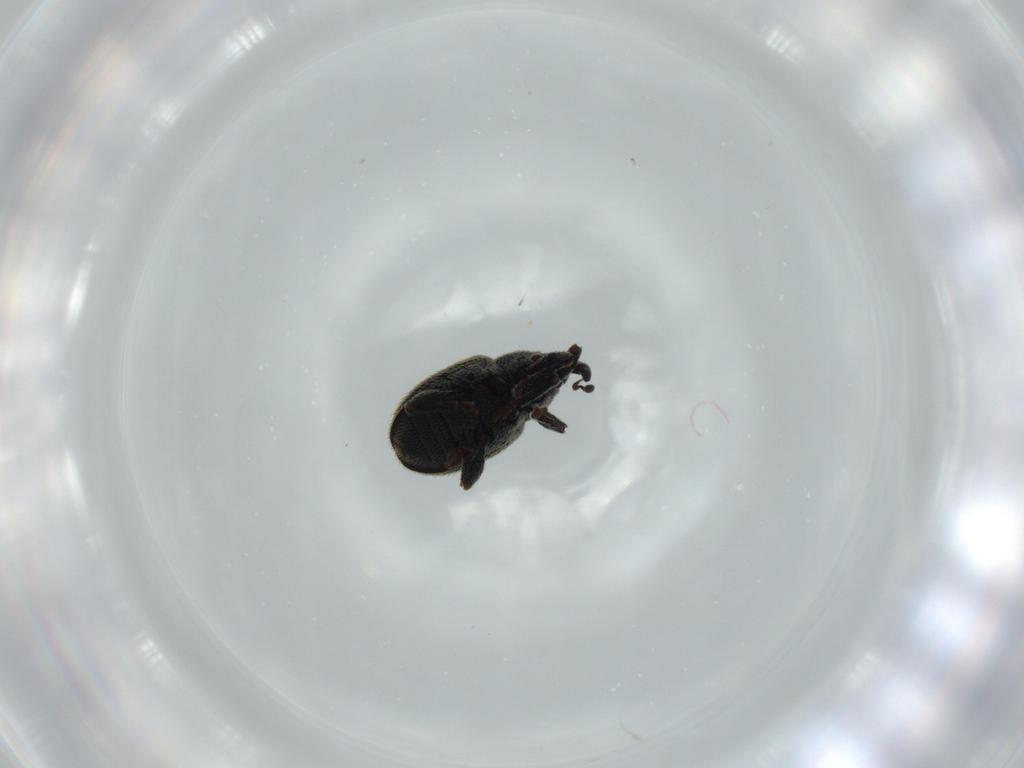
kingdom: Animalia
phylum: Arthropoda
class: Insecta
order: Coleoptera
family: Curculionidae
